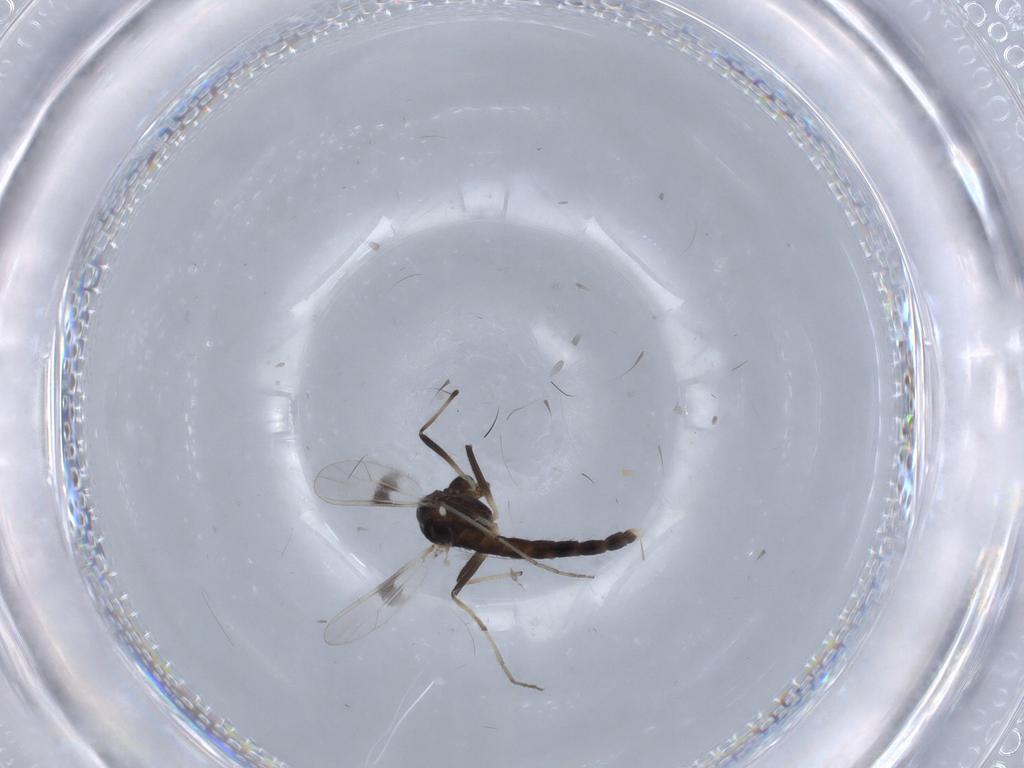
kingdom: Animalia
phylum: Arthropoda
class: Insecta
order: Diptera
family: Chironomidae
